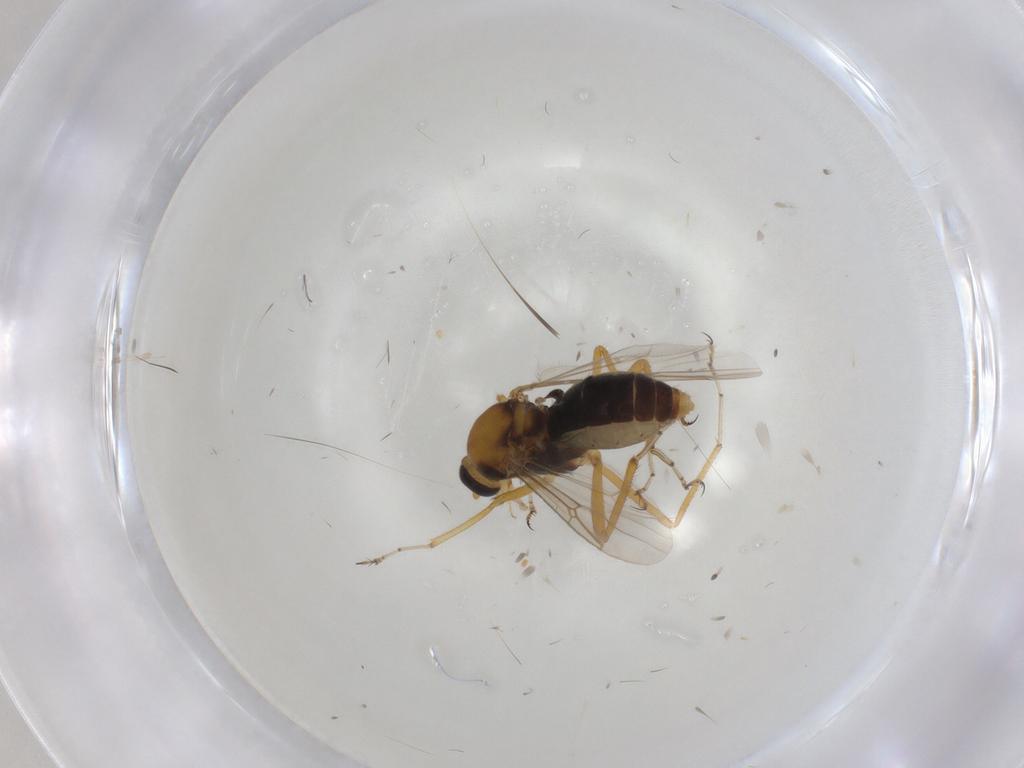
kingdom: Animalia
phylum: Arthropoda
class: Insecta
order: Diptera
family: Ceratopogonidae
